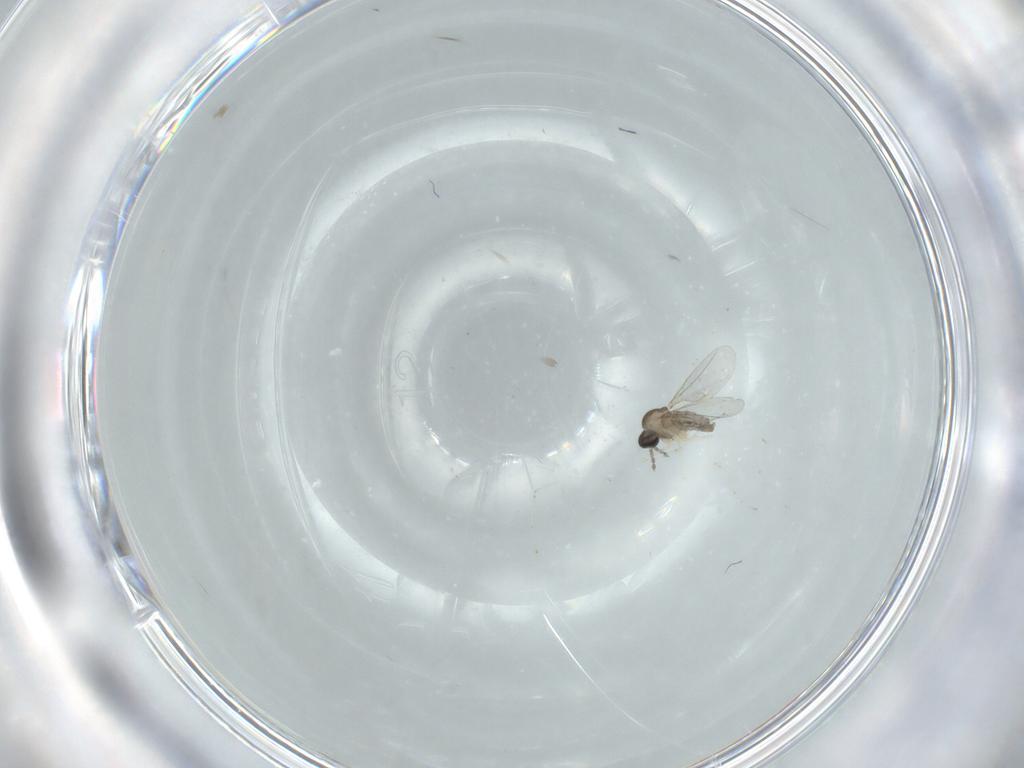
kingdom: Animalia
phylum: Arthropoda
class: Insecta
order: Diptera
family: Cecidomyiidae
